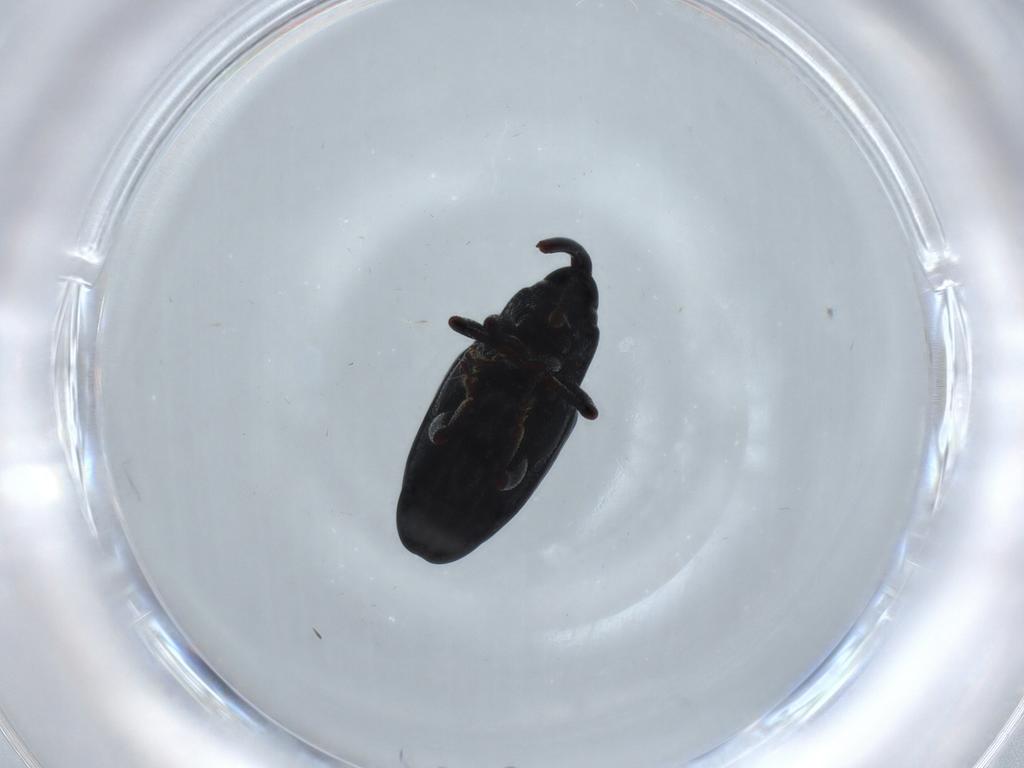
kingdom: Animalia
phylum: Arthropoda
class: Insecta
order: Coleoptera
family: Curculionidae
